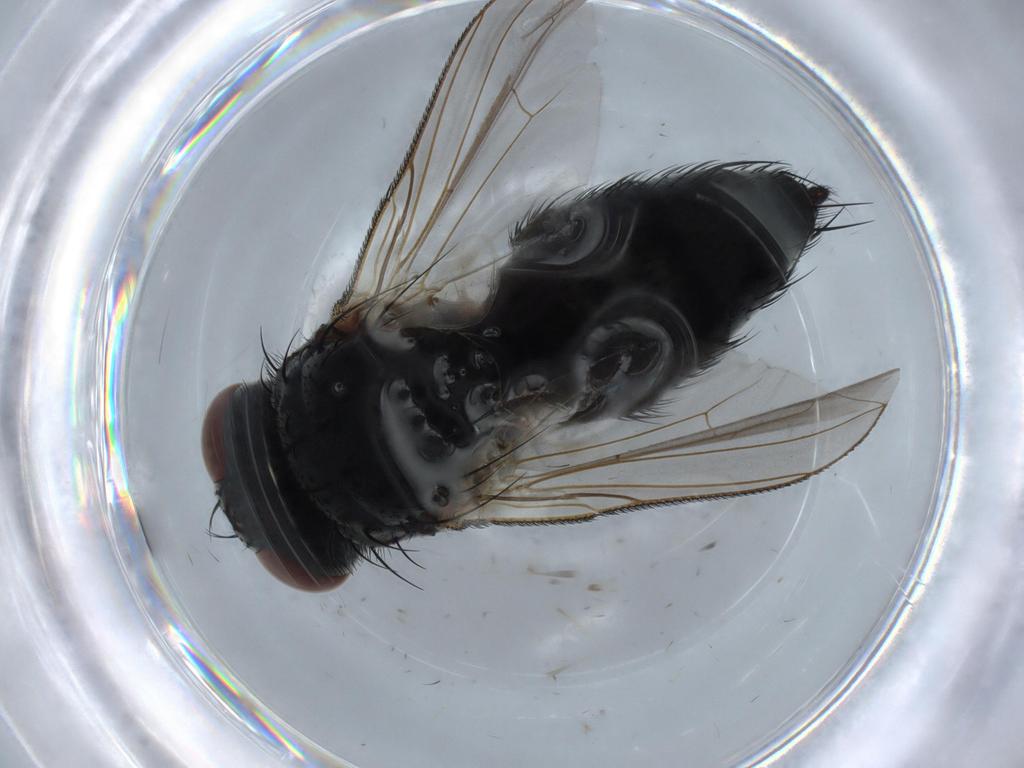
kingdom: Animalia
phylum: Arthropoda
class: Insecta
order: Diptera
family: Tachinidae
